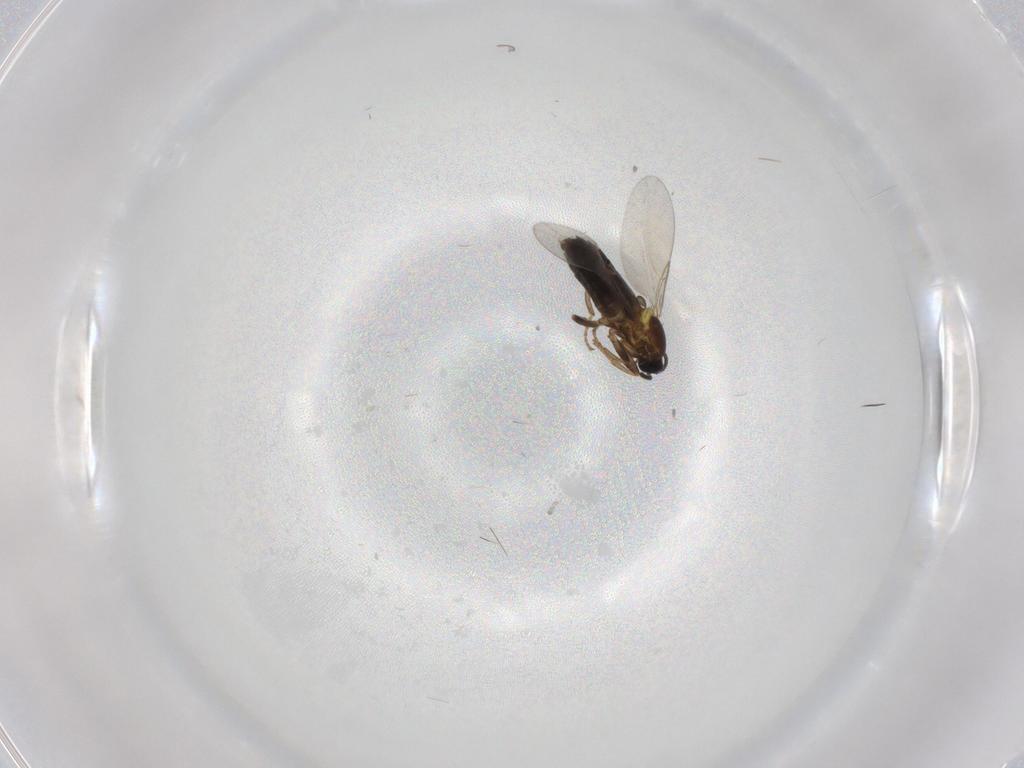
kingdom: Animalia
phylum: Arthropoda
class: Insecta
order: Diptera
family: Scatopsidae
